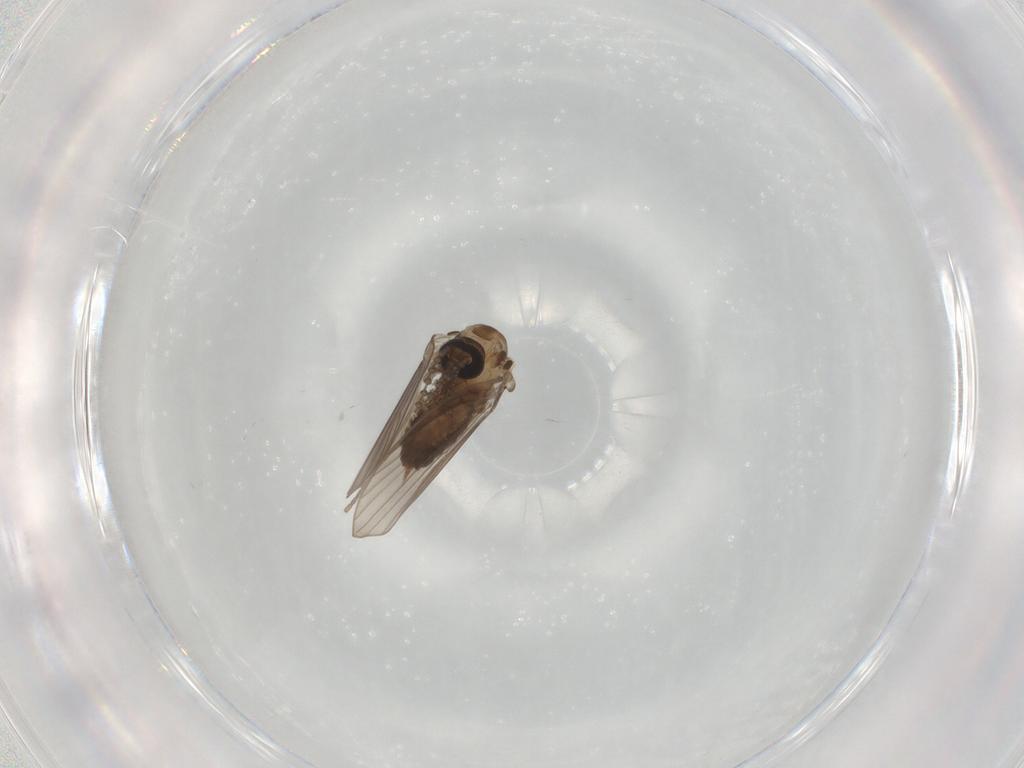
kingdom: Animalia
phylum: Arthropoda
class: Insecta
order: Diptera
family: Psychodidae
